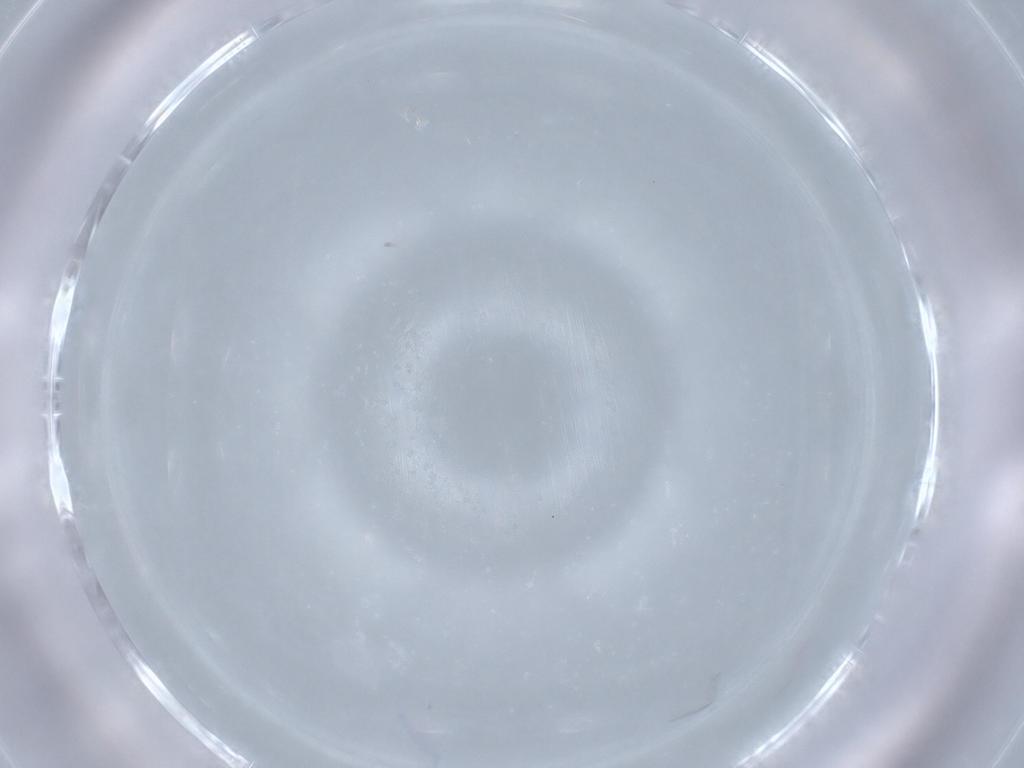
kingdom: Animalia
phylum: Arthropoda
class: Insecta
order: Diptera
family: Cecidomyiidae
